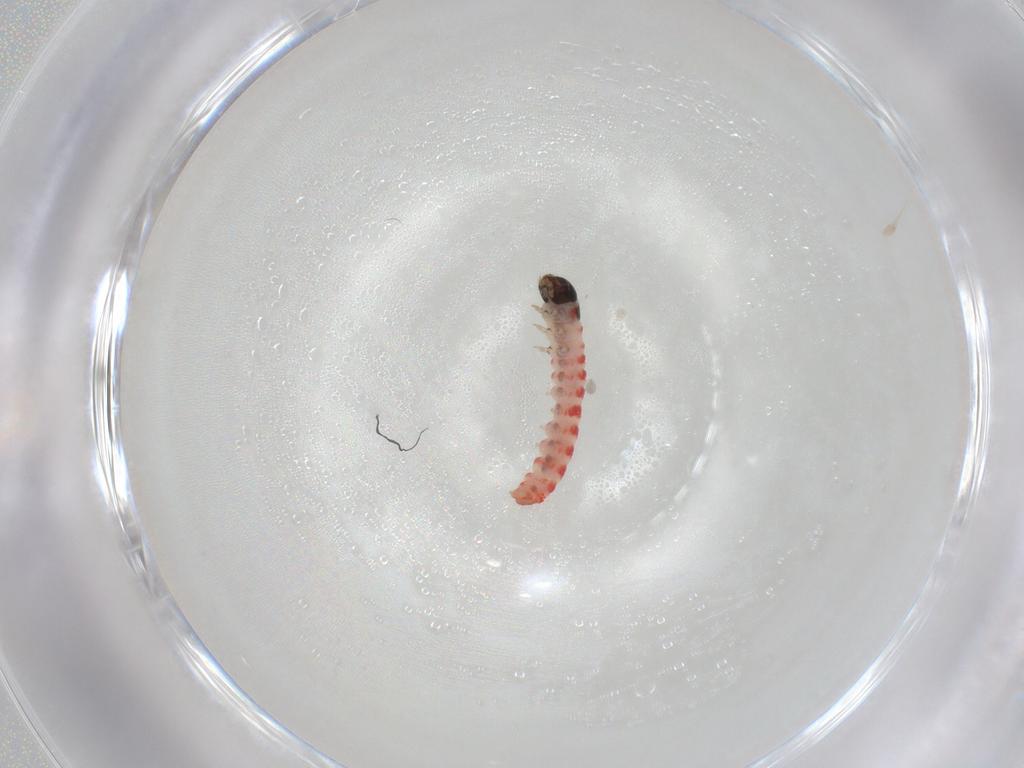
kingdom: Animalia
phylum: Arthropoda
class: Insecta
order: Lepidoptera
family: Nepticulidae
